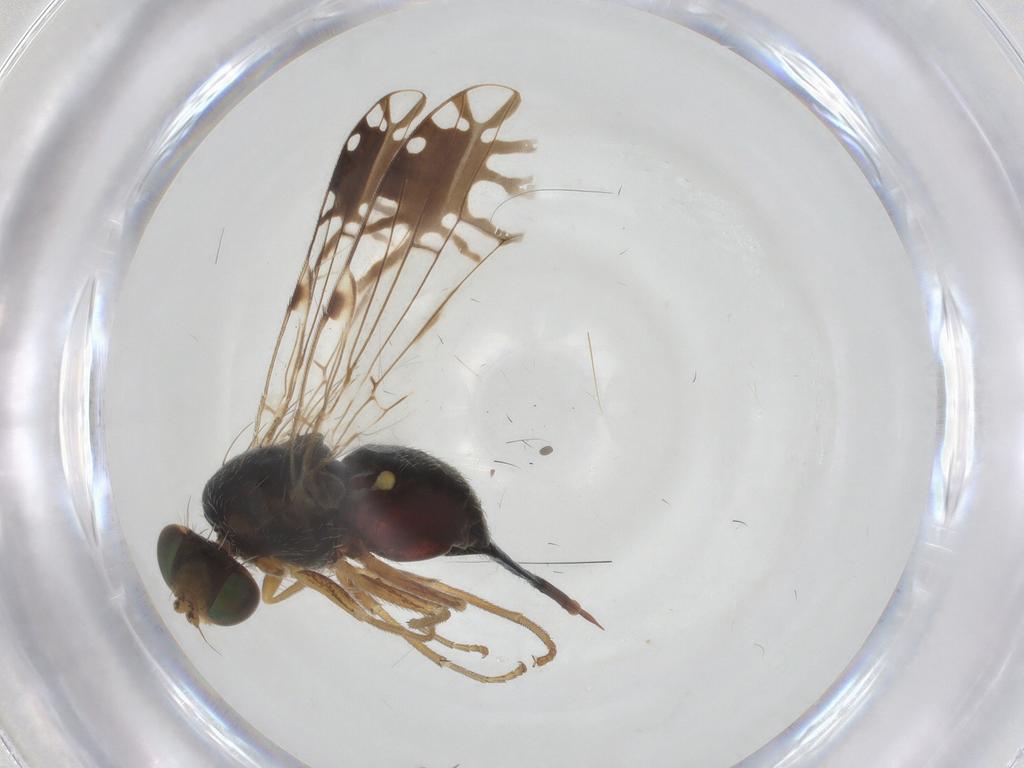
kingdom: Animalia
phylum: Arthropoda
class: Insecta
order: Diptera
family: Tephritidae
